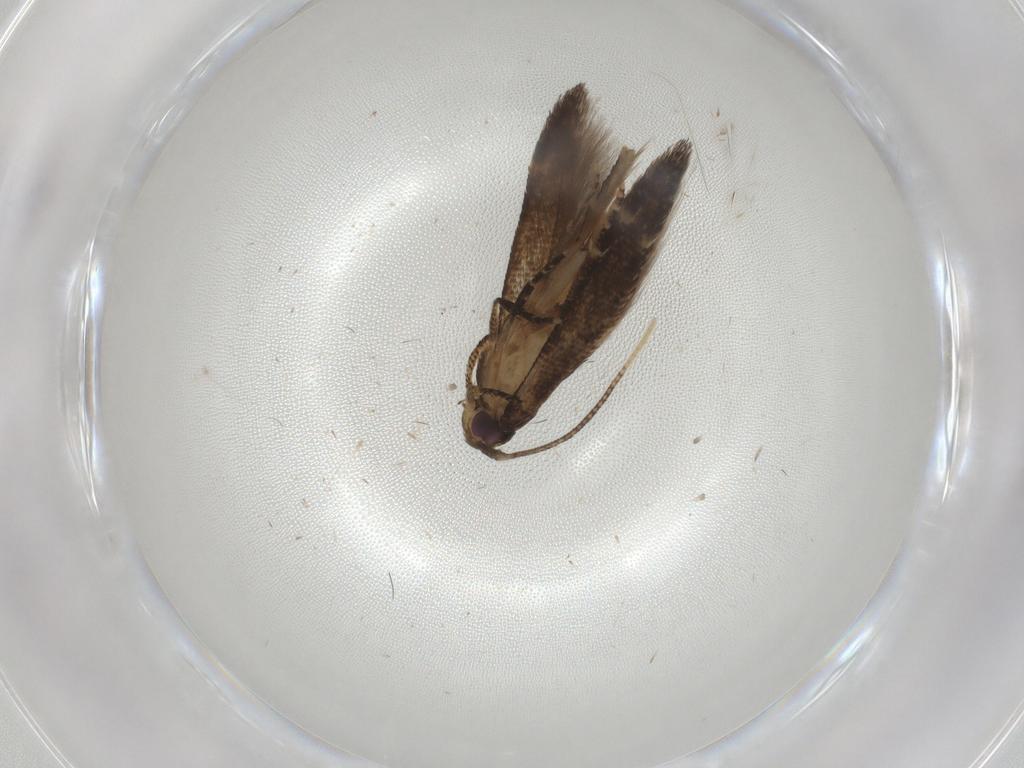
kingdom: Animalia
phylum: Arthropoda
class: Insecta
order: Lepidoptera
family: Cosmopterigidae
